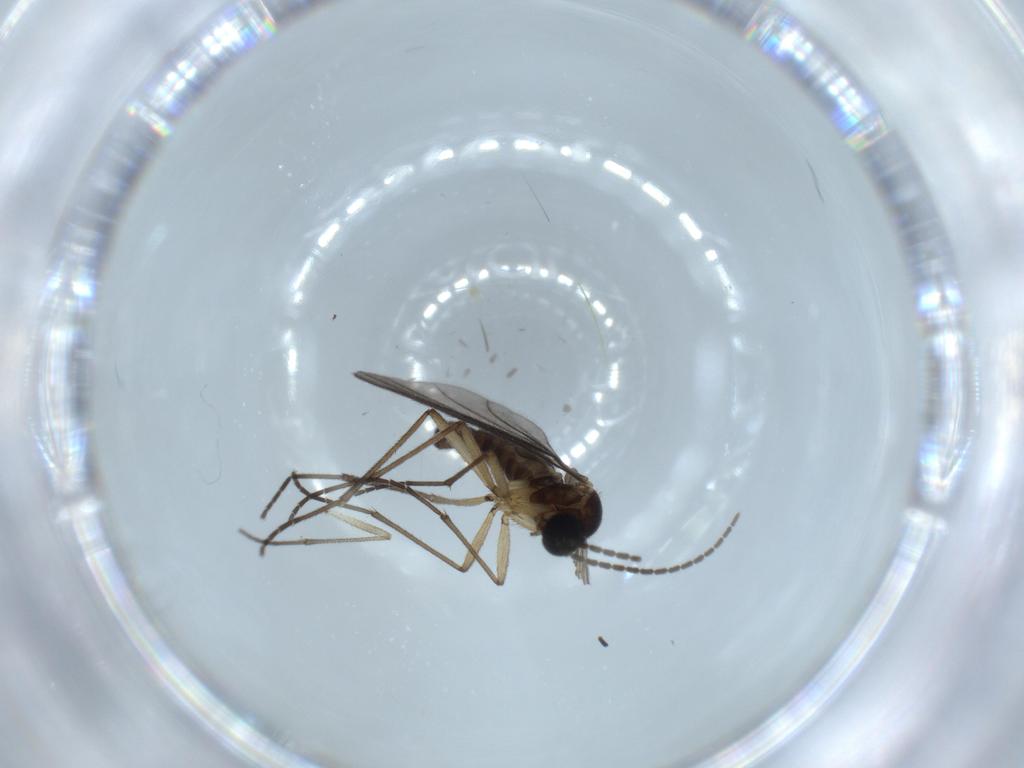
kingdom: Animalia
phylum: Arthropoda
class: Insecta
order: Diptera
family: Sciaridae
